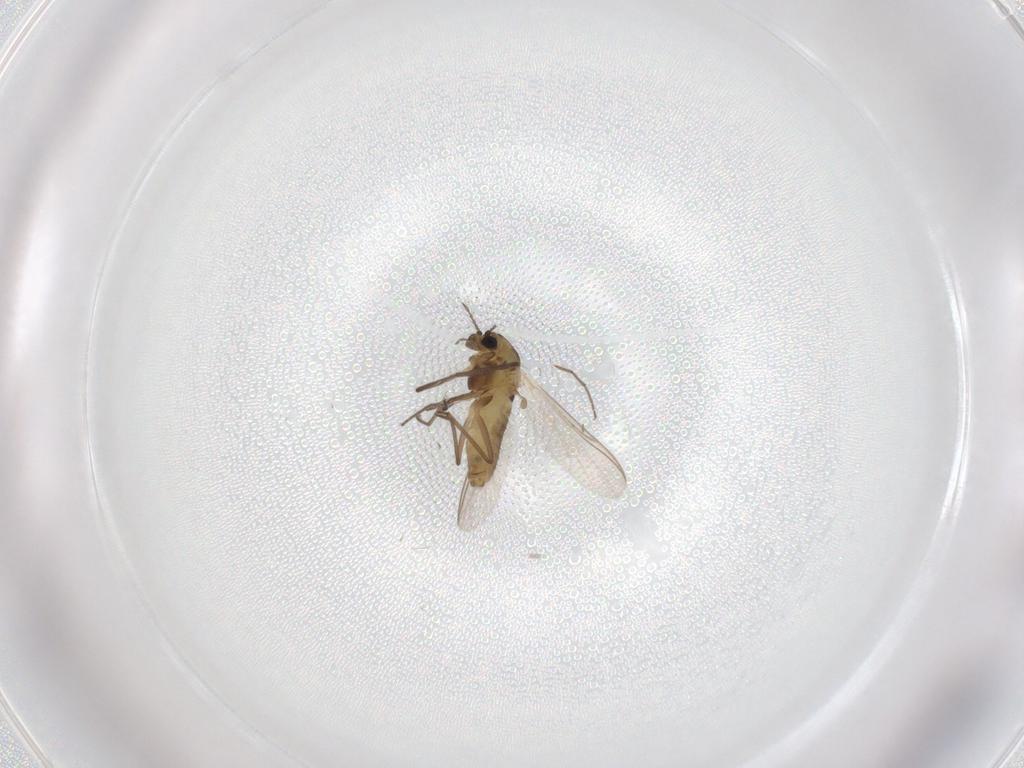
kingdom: Animalia
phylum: Arthropoda
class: Insecta
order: Diptera
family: Chironomidae
